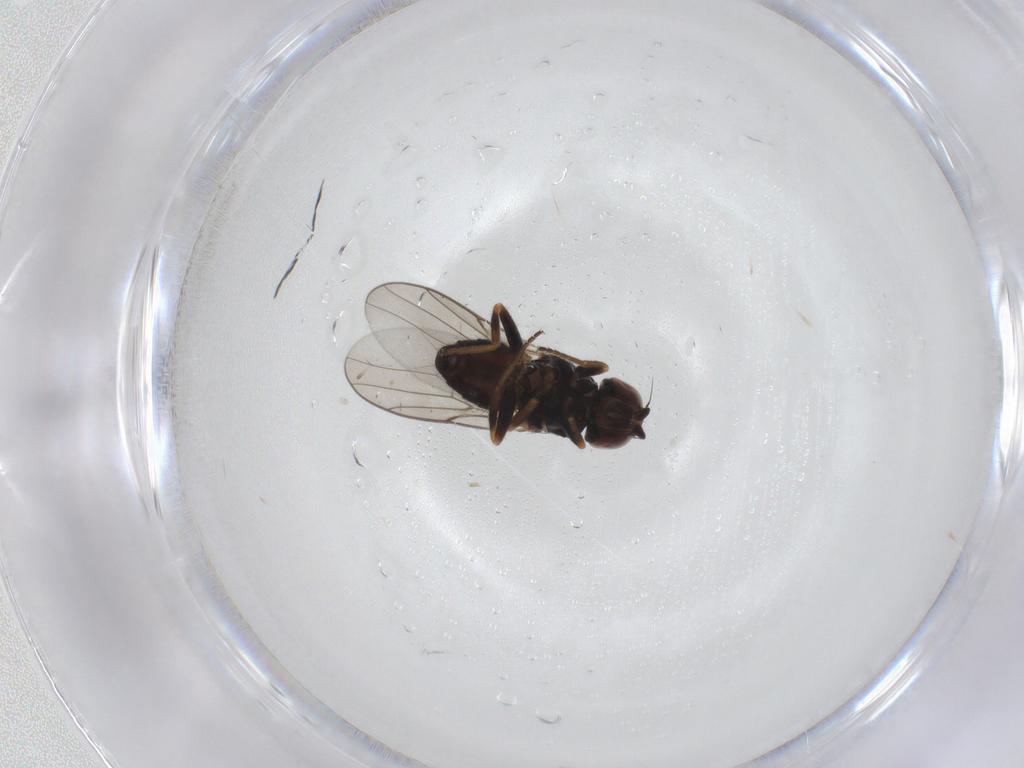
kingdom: Animalia
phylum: Arthropoda
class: Insecta
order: Diptera
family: Chloropidae
